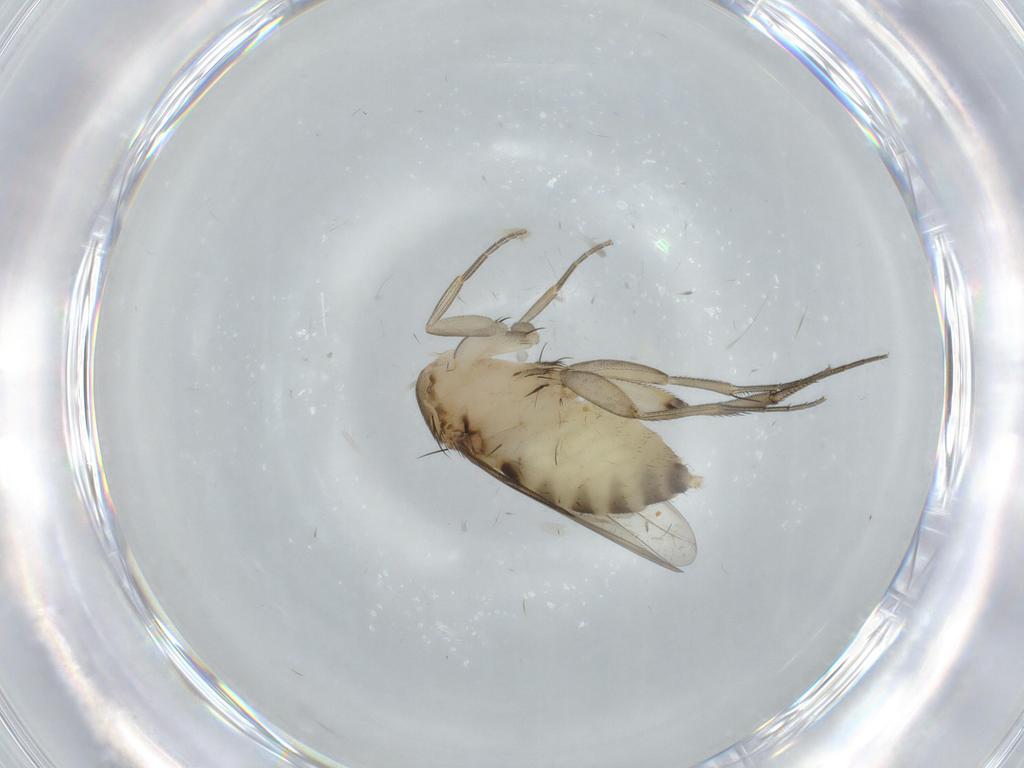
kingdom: Animalia
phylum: Arthropoda
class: Insecta
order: Diptera
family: Phoridae
